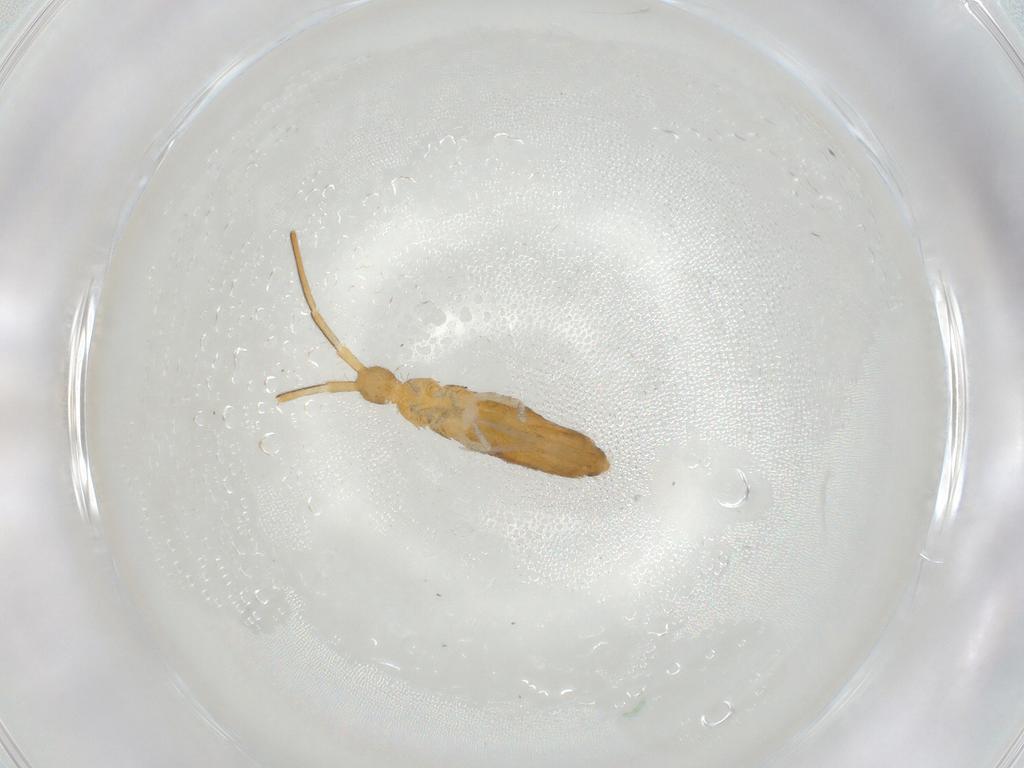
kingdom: Animalia
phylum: Arthropoda
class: Collembola
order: Entomobryomorpha
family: Entomobryidae
